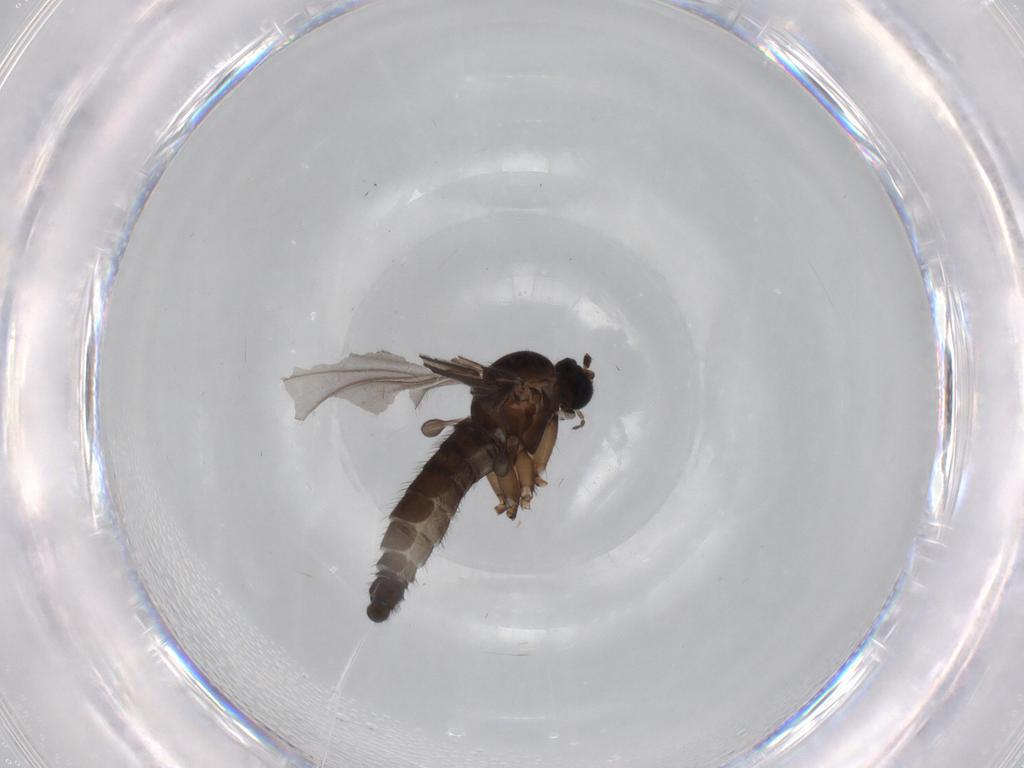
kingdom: Animalia
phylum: Arthropoda
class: Insecta
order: Diptera
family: Sciaridae
